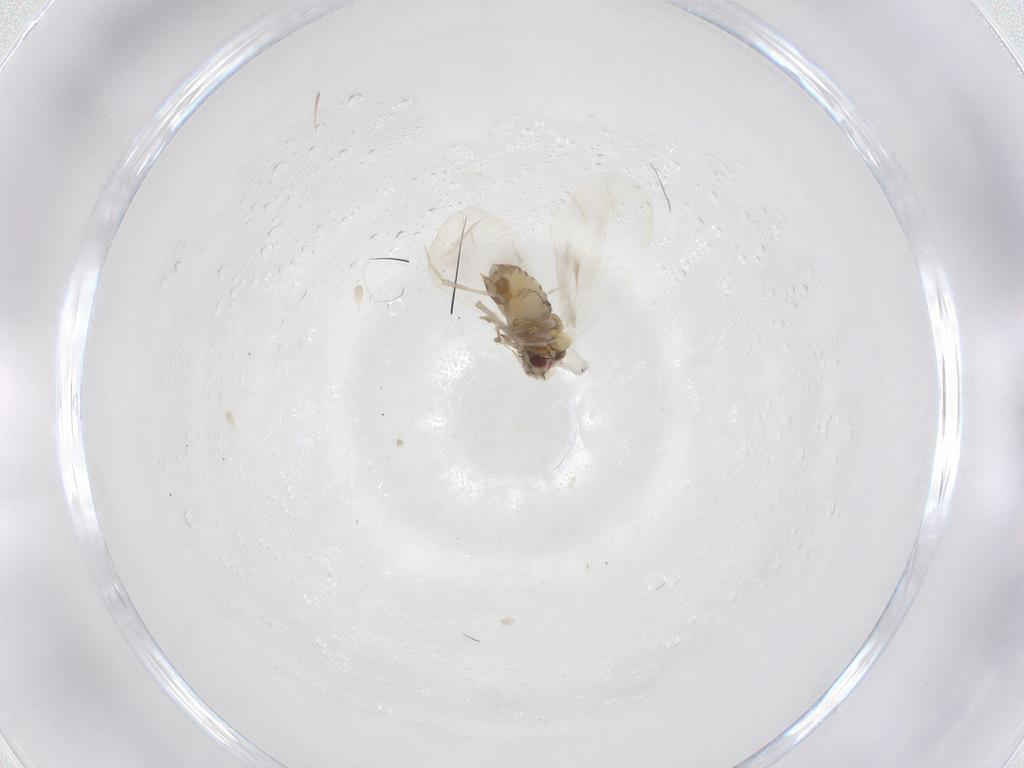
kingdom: Animalia
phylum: Arthropoda
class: Insecta
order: Hemiptera
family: Aleyrodidae
